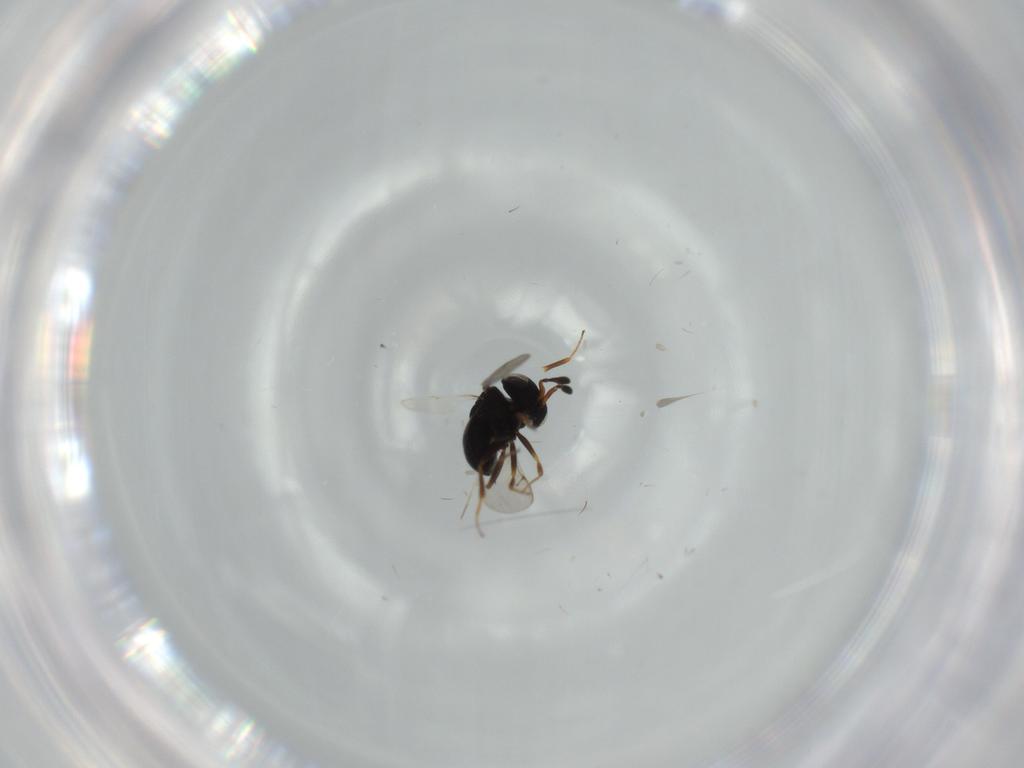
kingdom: Animalia
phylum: Arthropoda
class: Insecta
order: Hymenoptera
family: Scelionidae
